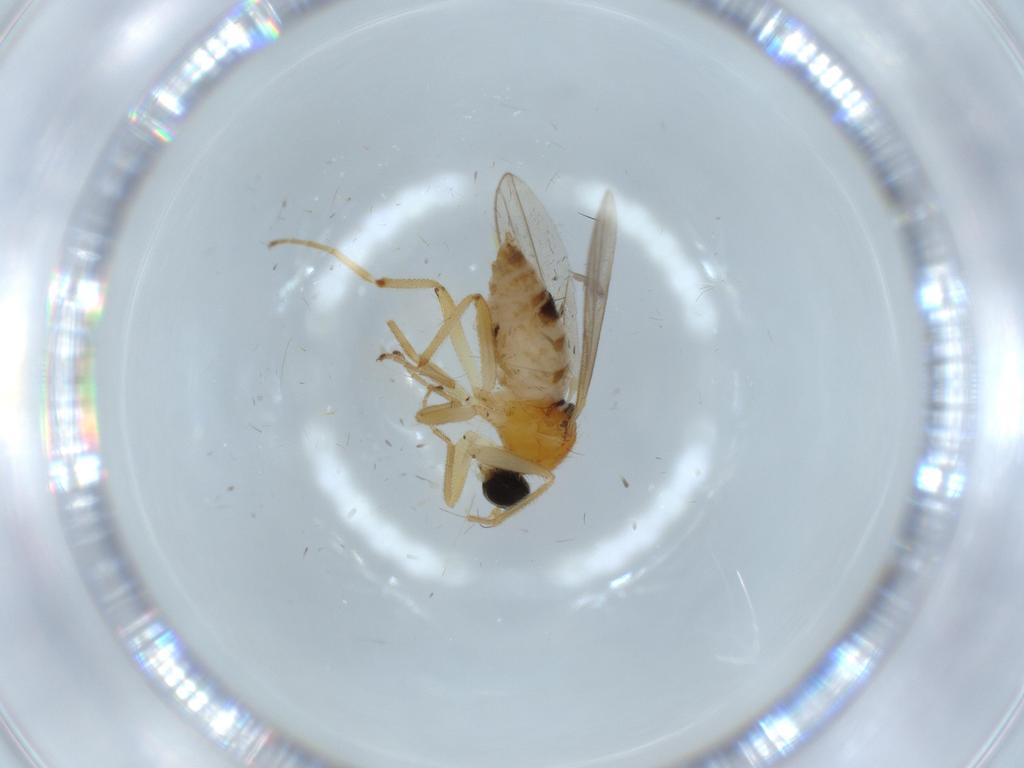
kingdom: Animalia
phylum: Arthropoda
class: Insecta
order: Diptera
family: Hybotidae
